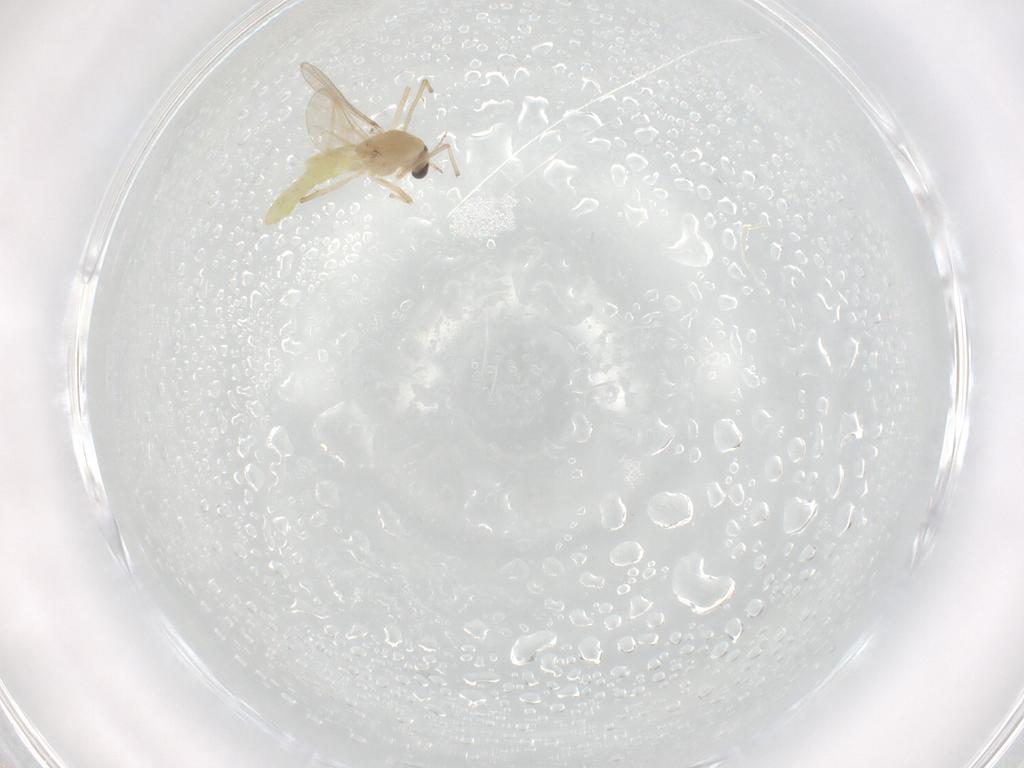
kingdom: Animalia
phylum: Arthropoda
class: Insecta
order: Diptera
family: Chironomidae
